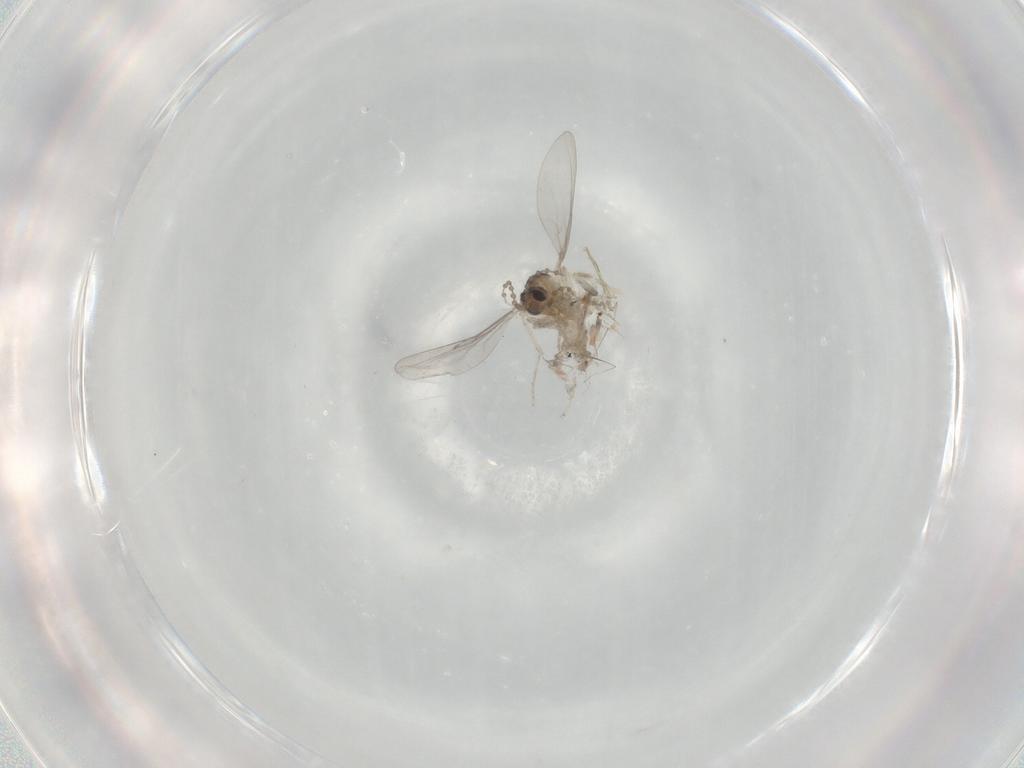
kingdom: Animalia
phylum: Arthropoda
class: Insecta
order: Diptera
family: Cecidomyiidae
